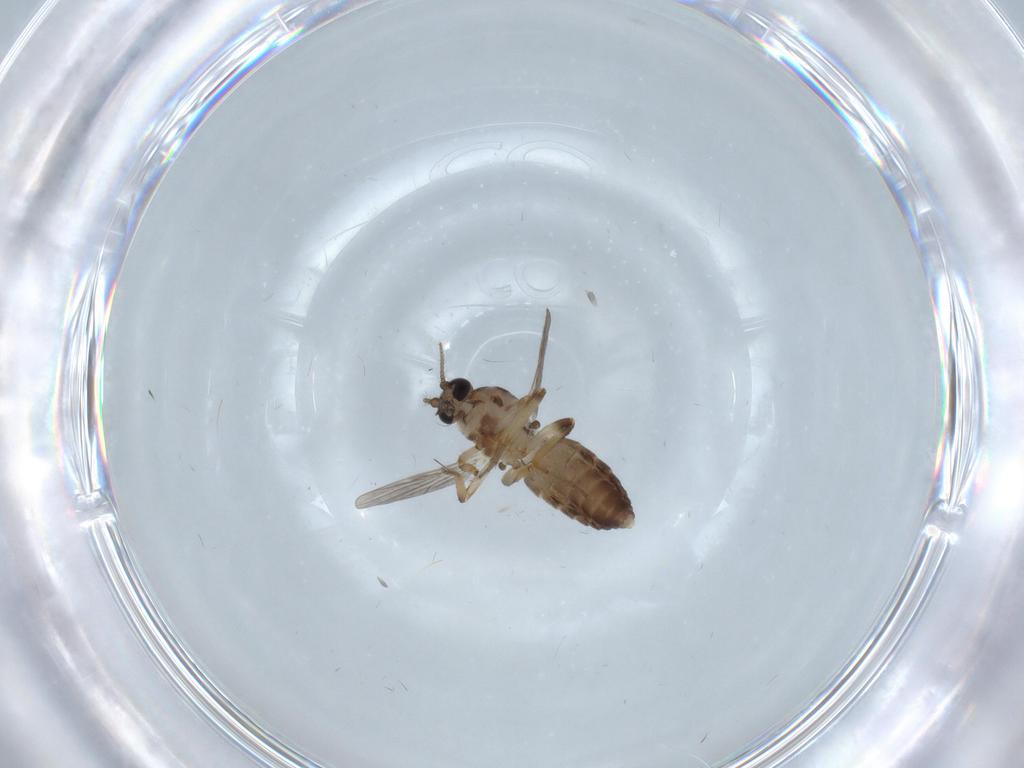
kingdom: Animalia
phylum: Arthropoda
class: Insecta
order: Diptera
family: Ceratopogonidae
